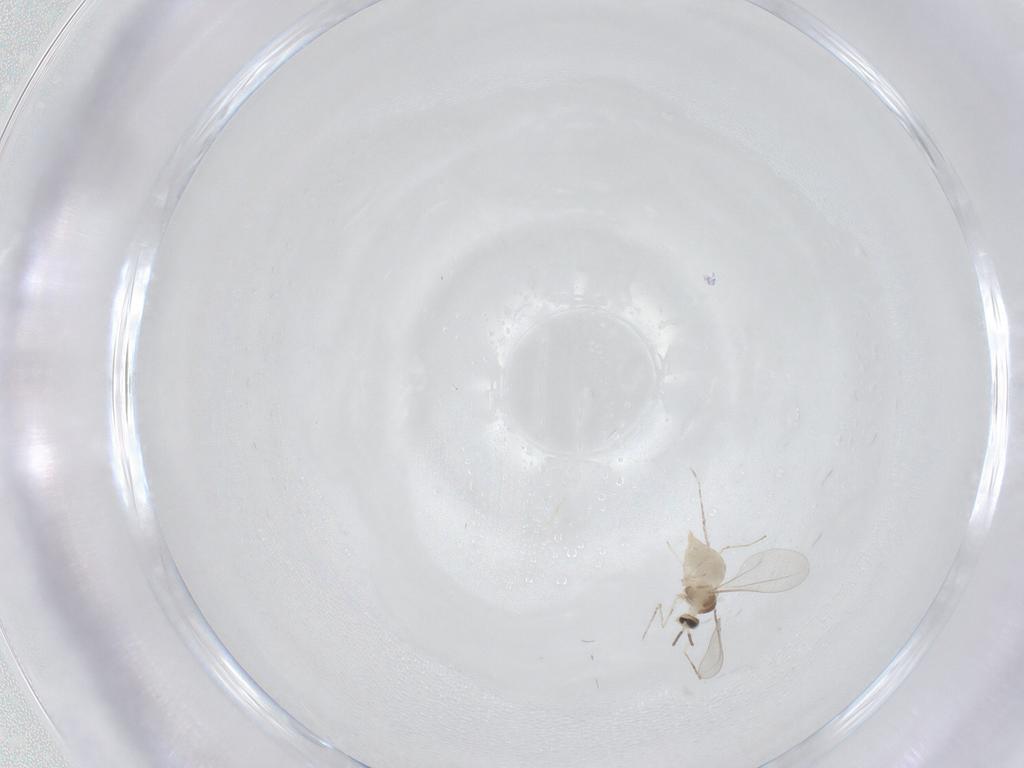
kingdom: Animalia
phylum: Arthropoda
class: Insecta
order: Diptera
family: Cecidomyiidae
